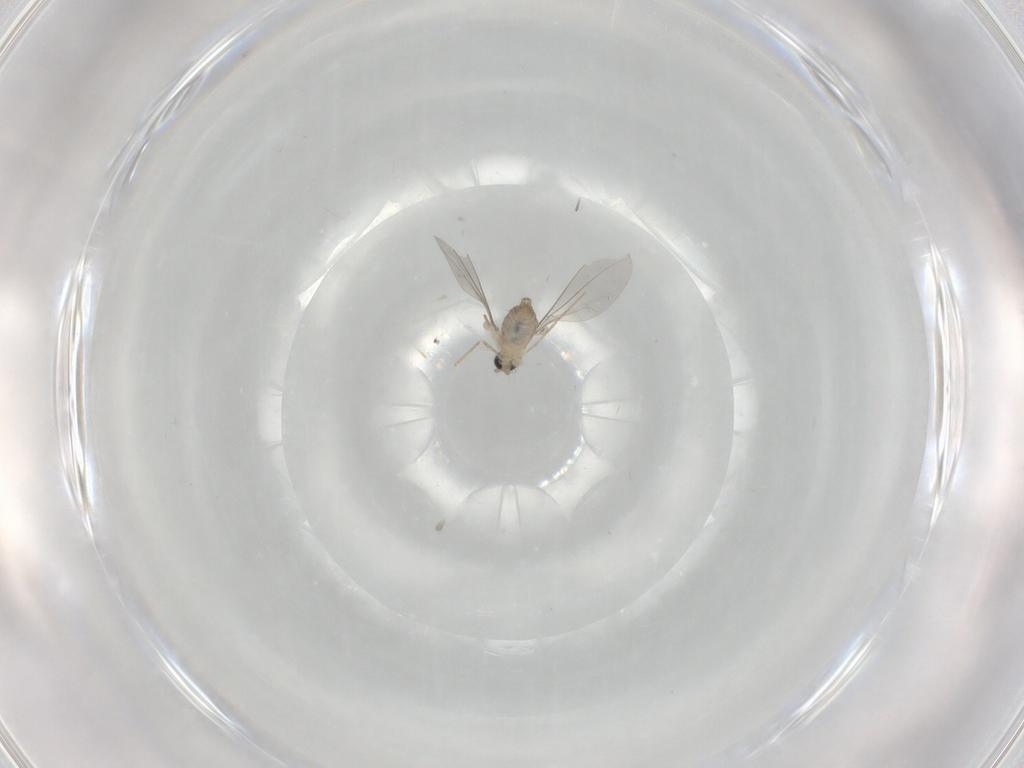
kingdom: Animalia
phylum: Arthropoda
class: Insecta
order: Diptera
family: Cecidomyiidae
